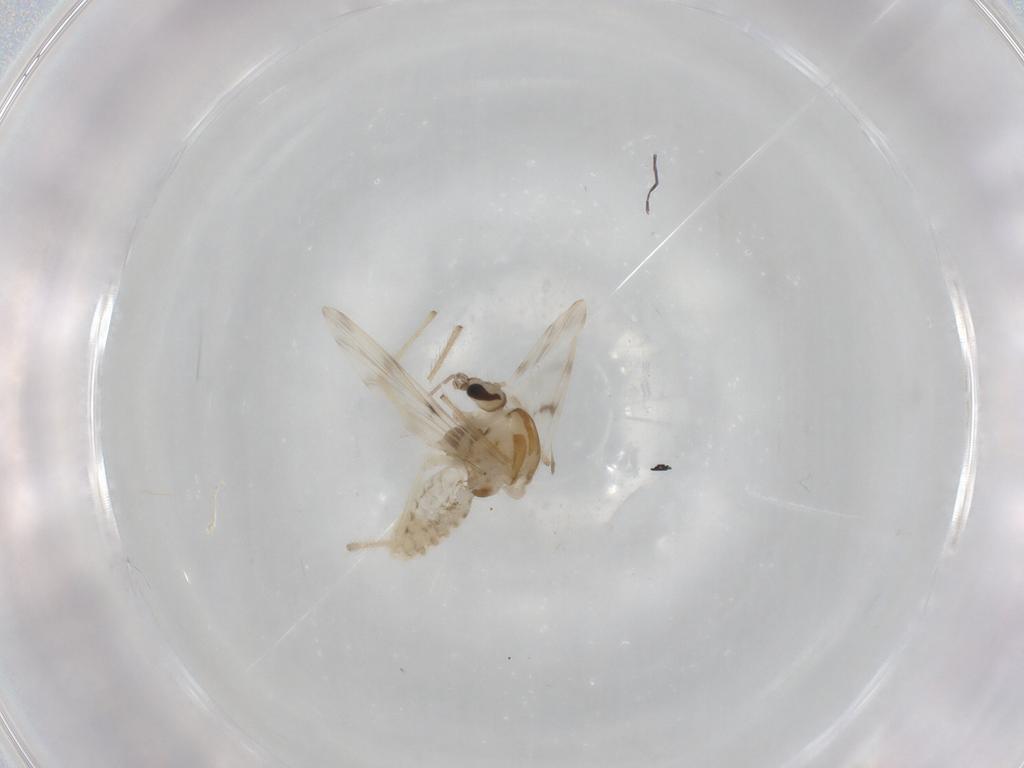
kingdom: Animalia
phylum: Arthropoda
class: Insecta
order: Diptera
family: Chironomidae
